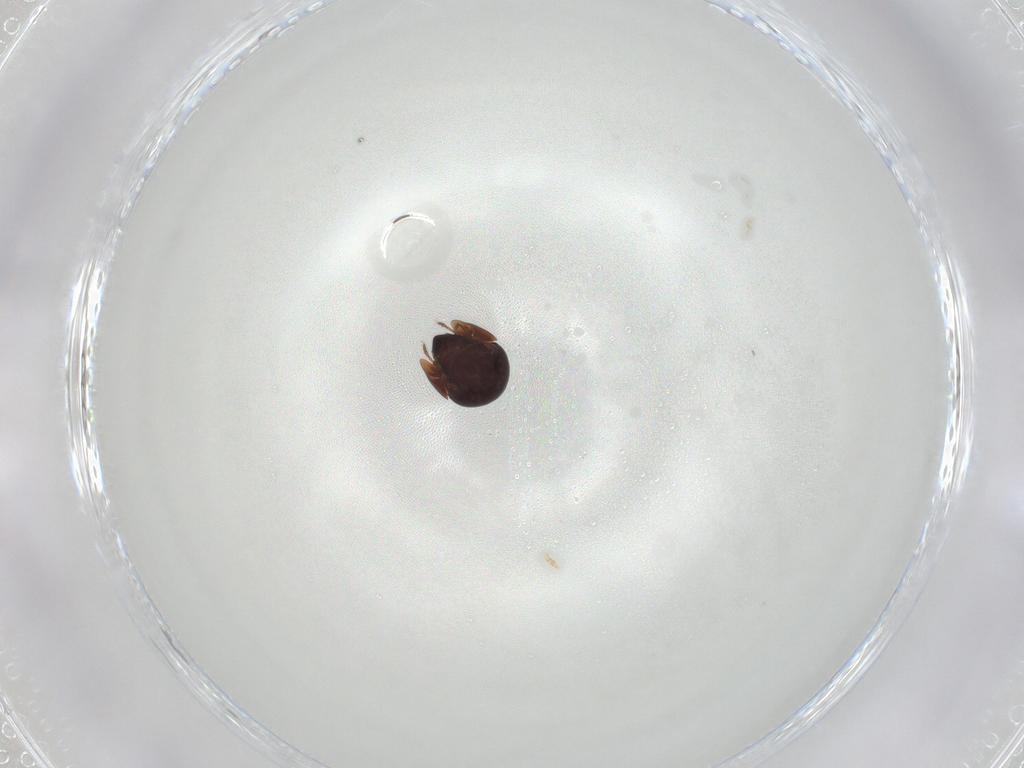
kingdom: Animalia
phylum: Arthropoda
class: Arachnida
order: Sarcoptiformes
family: Galumnidae
